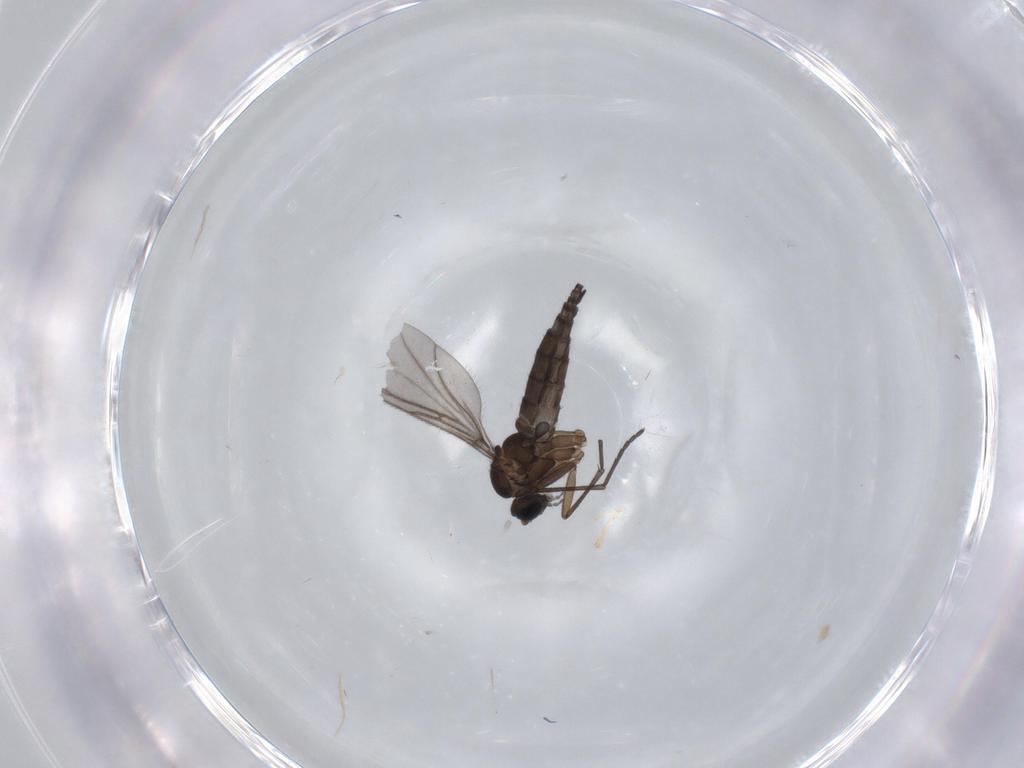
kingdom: Animalia
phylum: Arthropoda
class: Insecta
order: Diptera
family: Sciaridae
